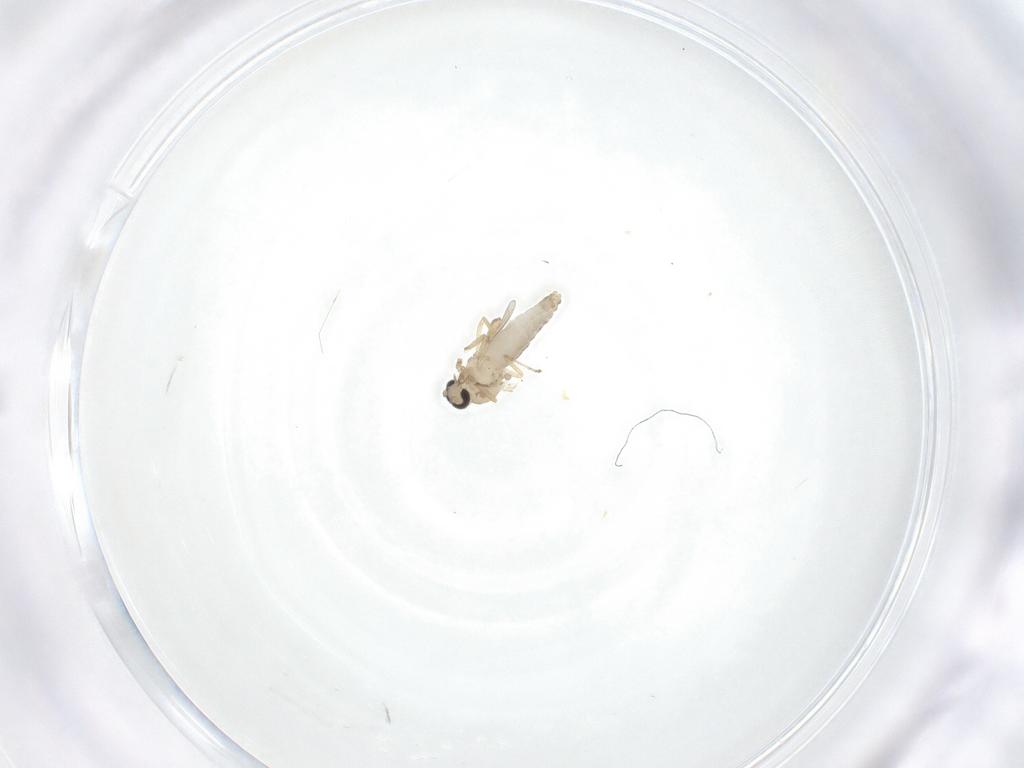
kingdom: Animalia
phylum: Arthropoda
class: Insecta
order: Diptera
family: Ceratopogonidae
